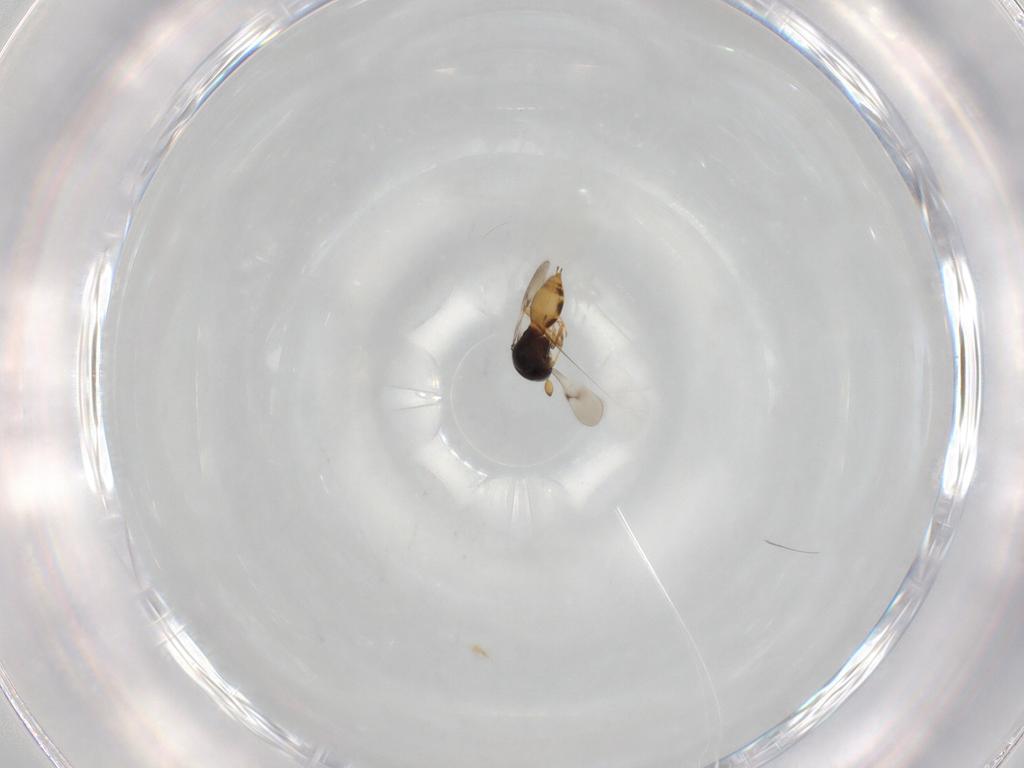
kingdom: Animalia
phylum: Arthropoda
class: Insecta
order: Hymenoptera
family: Scelionidae
